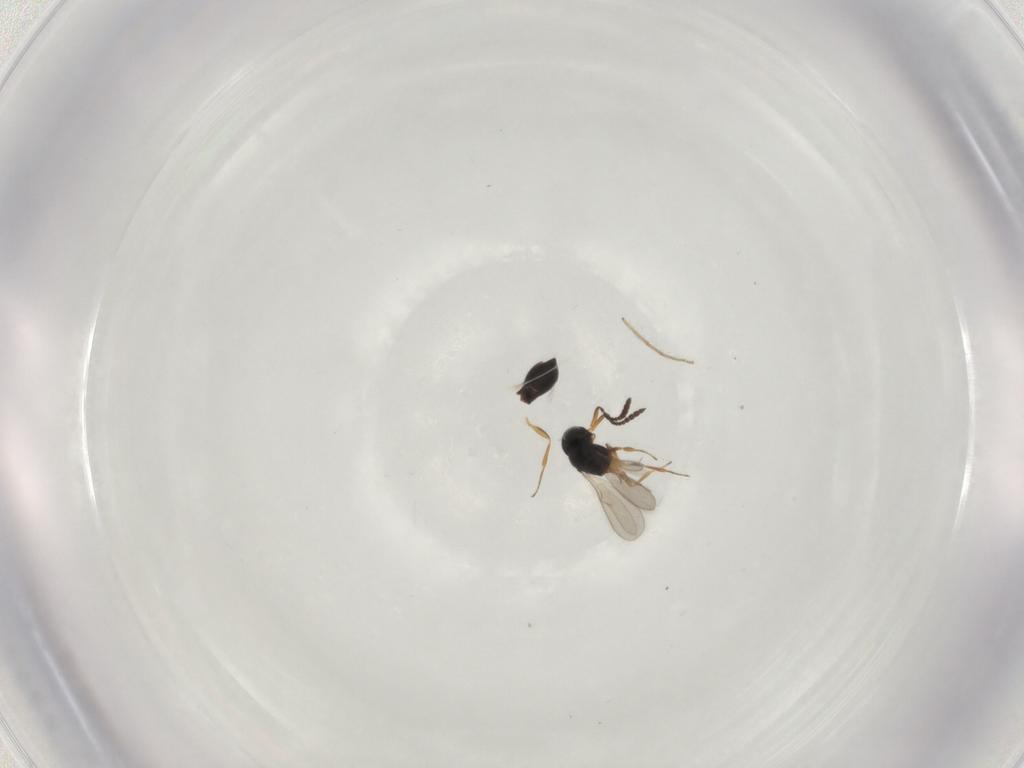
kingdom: Animalia
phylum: Arthropoda
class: Insecta
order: Hymenoptera
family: Scelionidae
